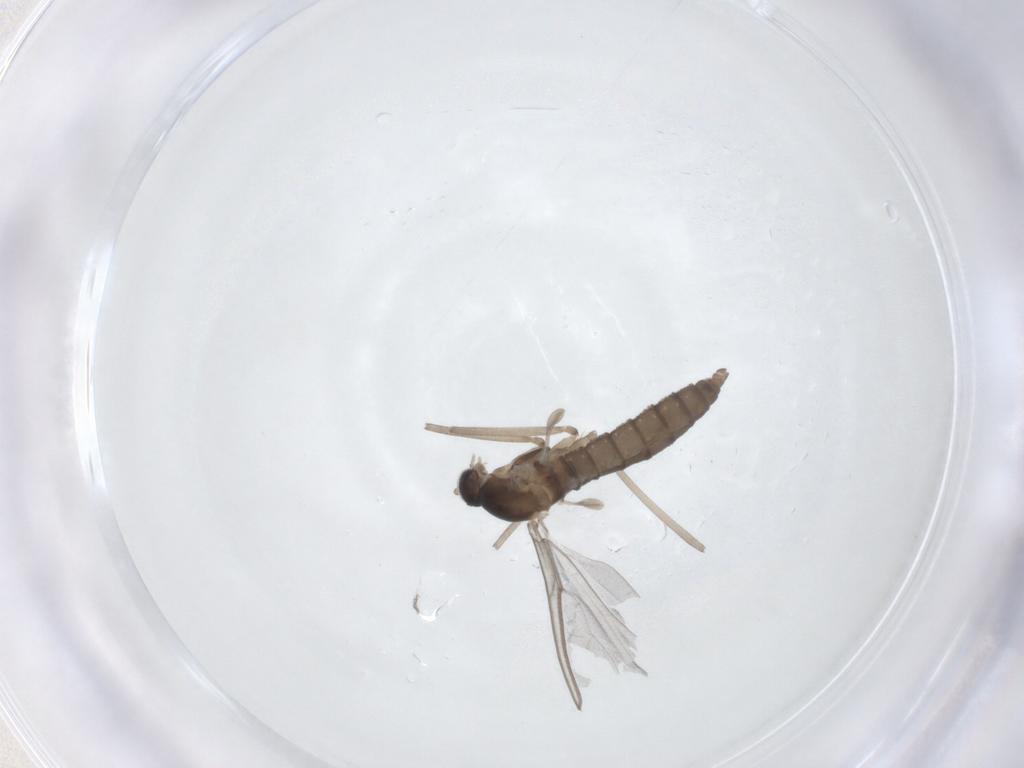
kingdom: Animalia
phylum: Arthropoda
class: Insecta
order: Diptera
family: Cecidomyiidae
